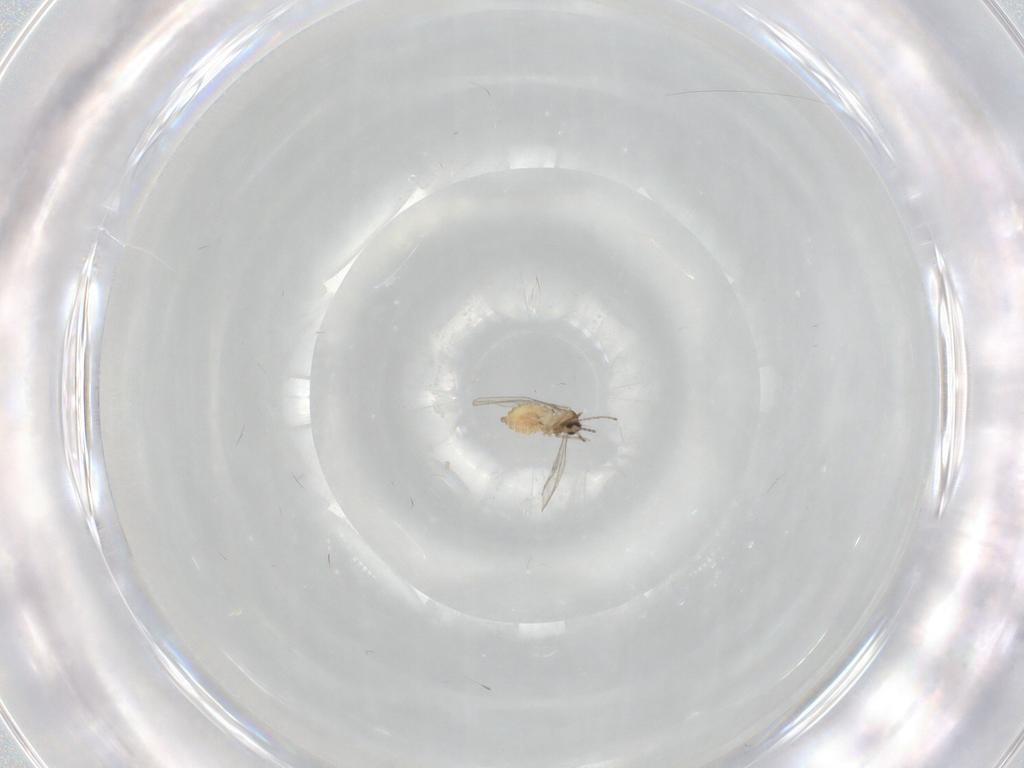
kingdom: Animalia
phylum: Arthropoda
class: Insecta
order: Diptera
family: Cecidomyiidae
